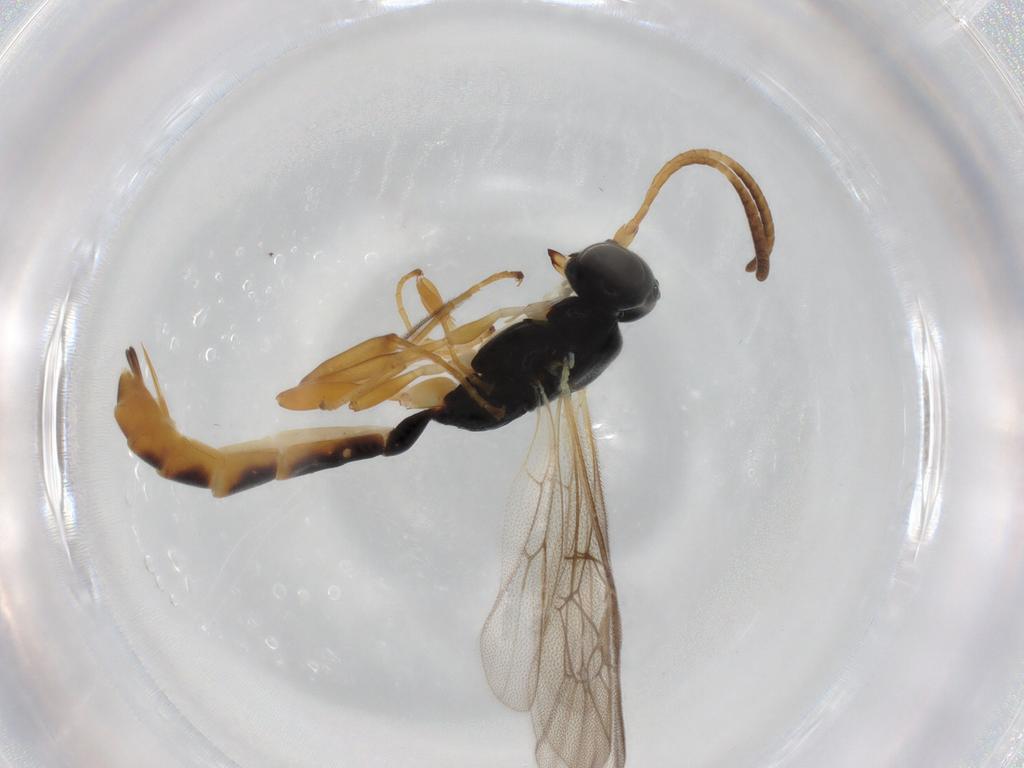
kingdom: Animalia
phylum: Arthropoda
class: Insecta
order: Hymenoptera
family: Ichneumonidae
